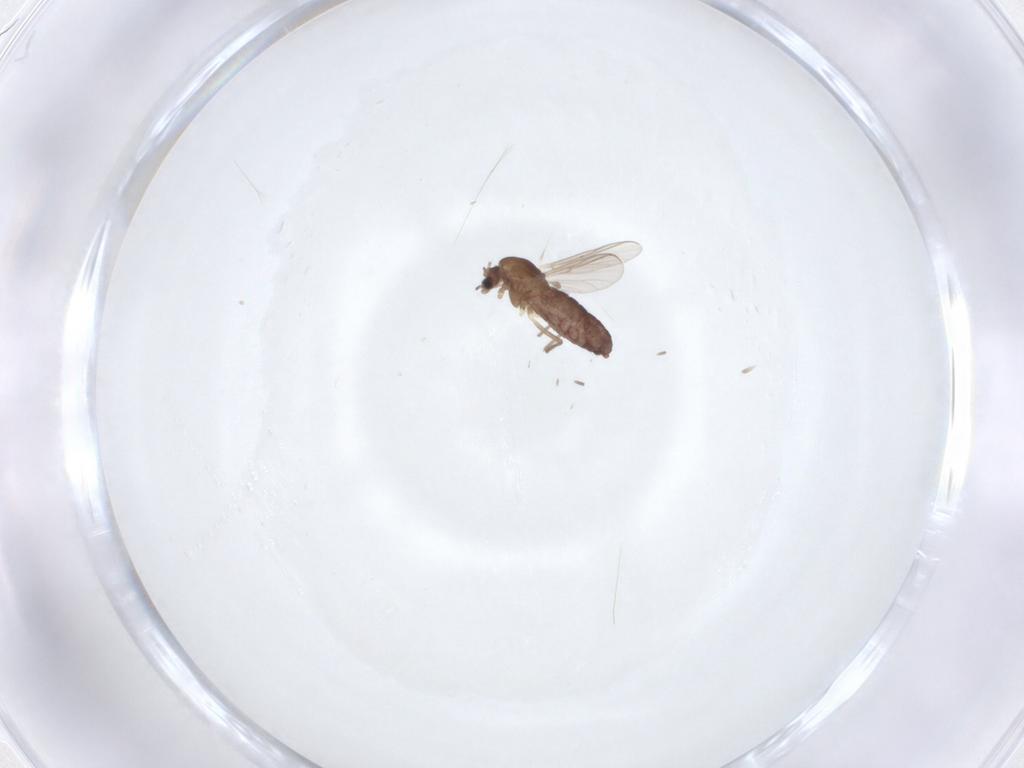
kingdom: Animalia
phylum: Arthropoda
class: Insecta
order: Diptera
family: Chironomidae
